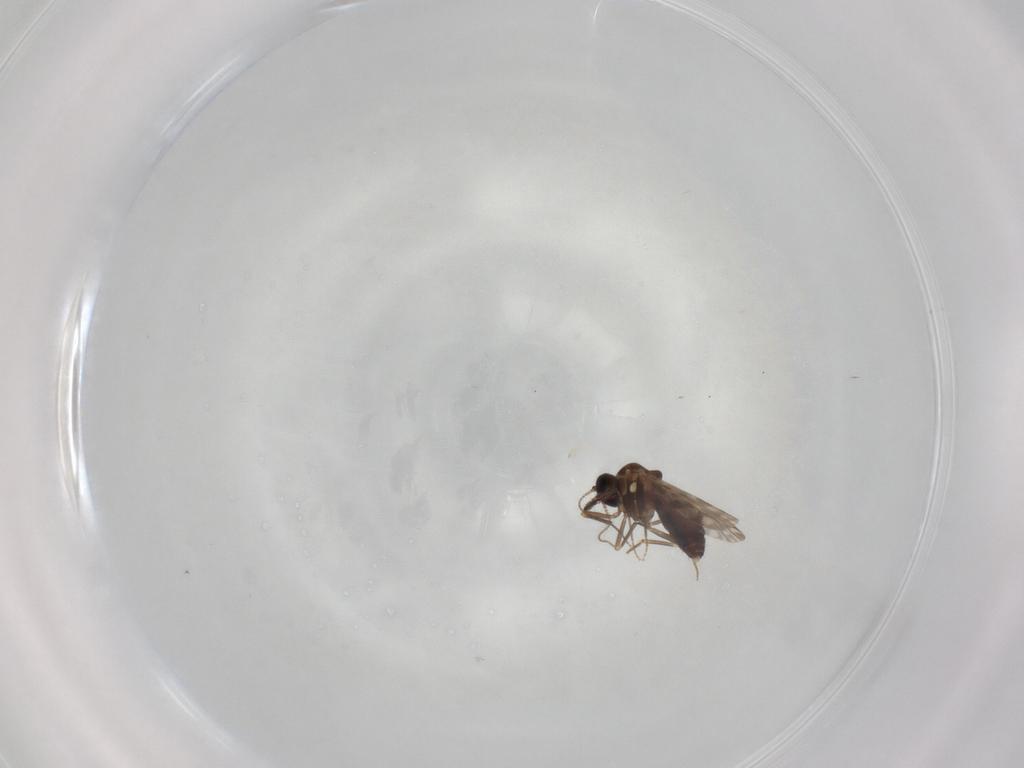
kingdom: Animalia
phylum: Arthropoda
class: Insecta
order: Diptera
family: Ceratopogonidae
